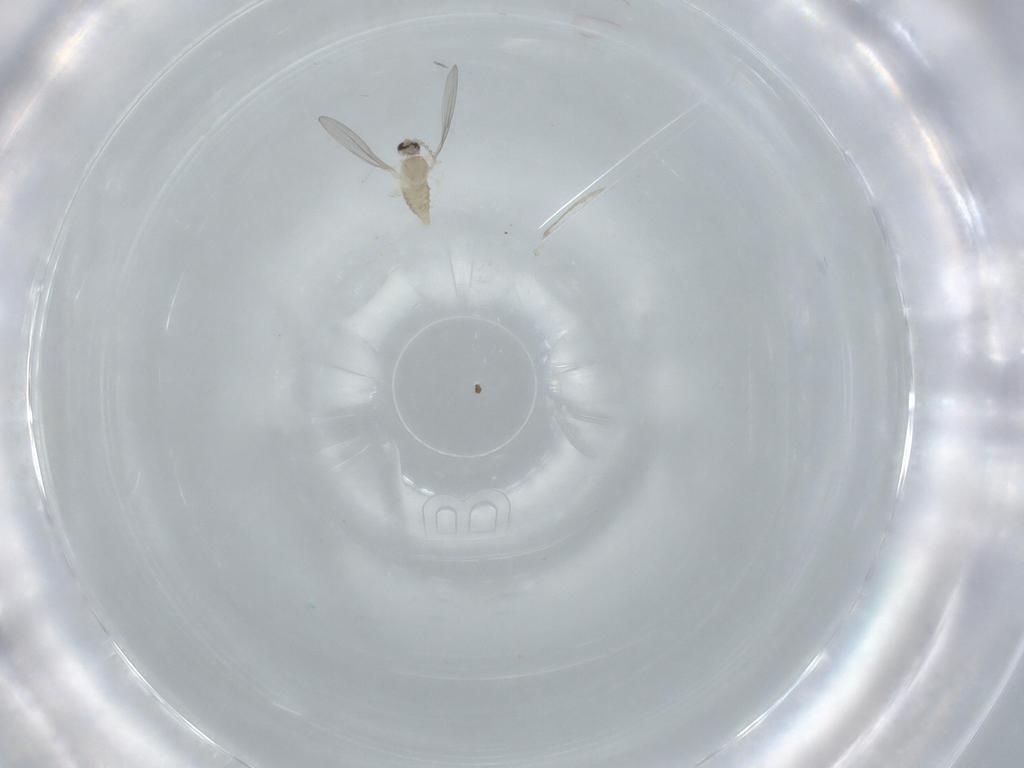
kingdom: Animalia
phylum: Arthropoda
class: Insecta
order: Diptera
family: Cecidomyiidae
